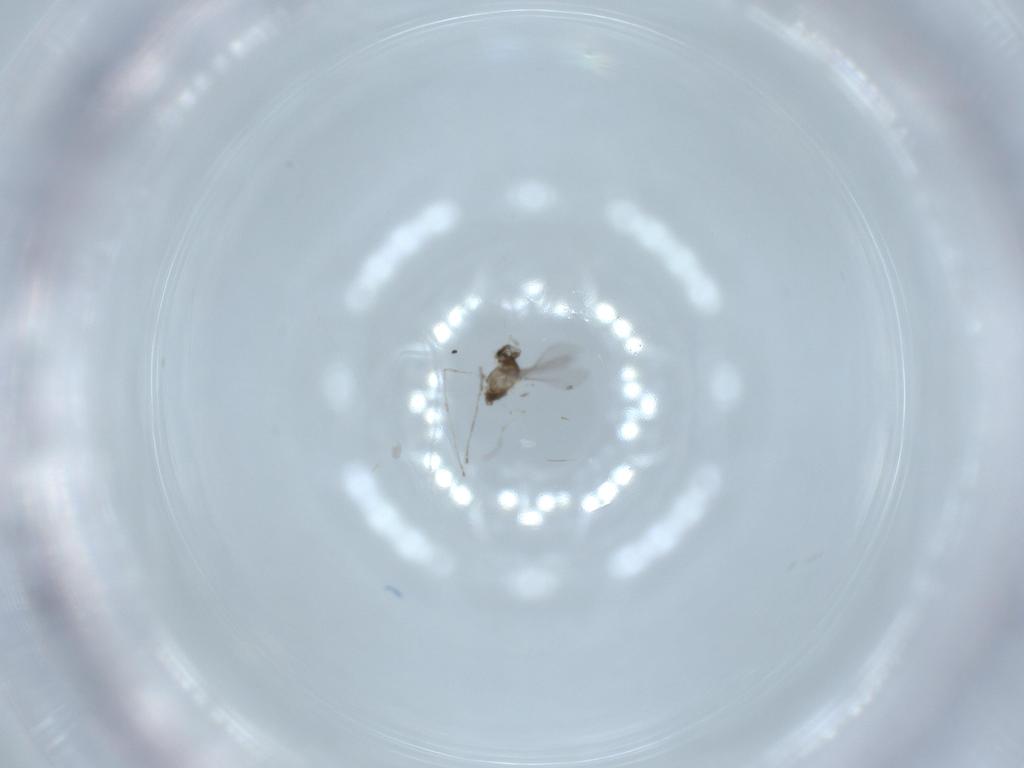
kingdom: Animalia
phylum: Arthropoda
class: Insecta
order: Diptera
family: Cecidomyiidae
